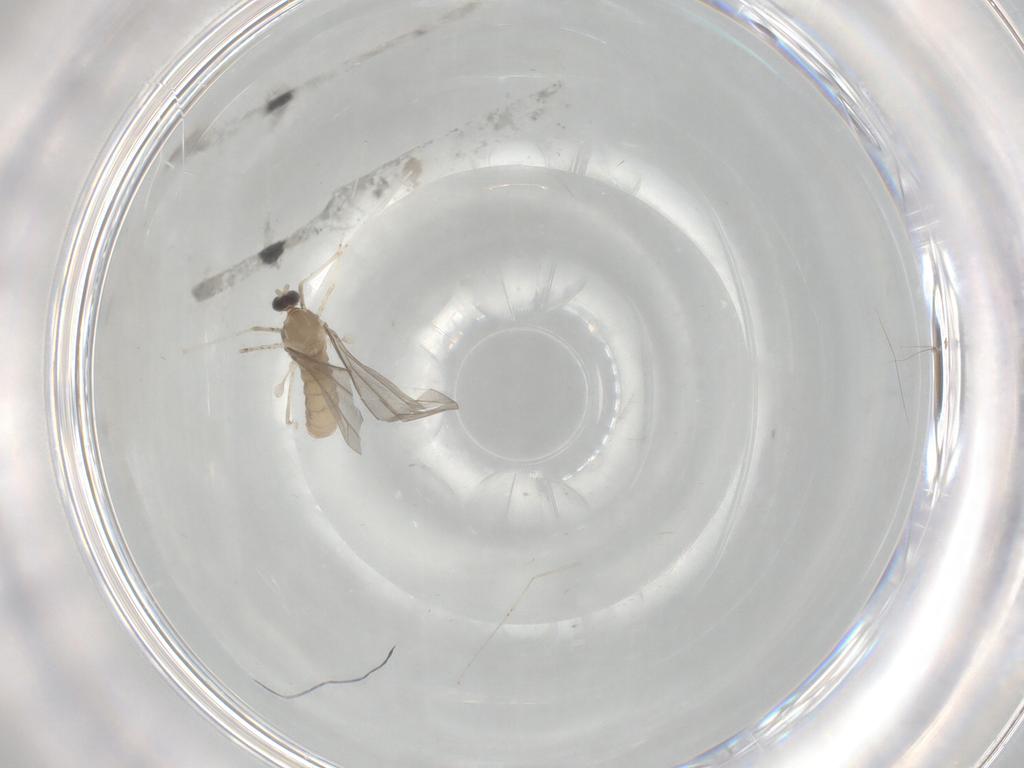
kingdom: Animalia
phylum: Arthropoda
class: Insecta
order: Diptera
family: Cecidomyiidae
